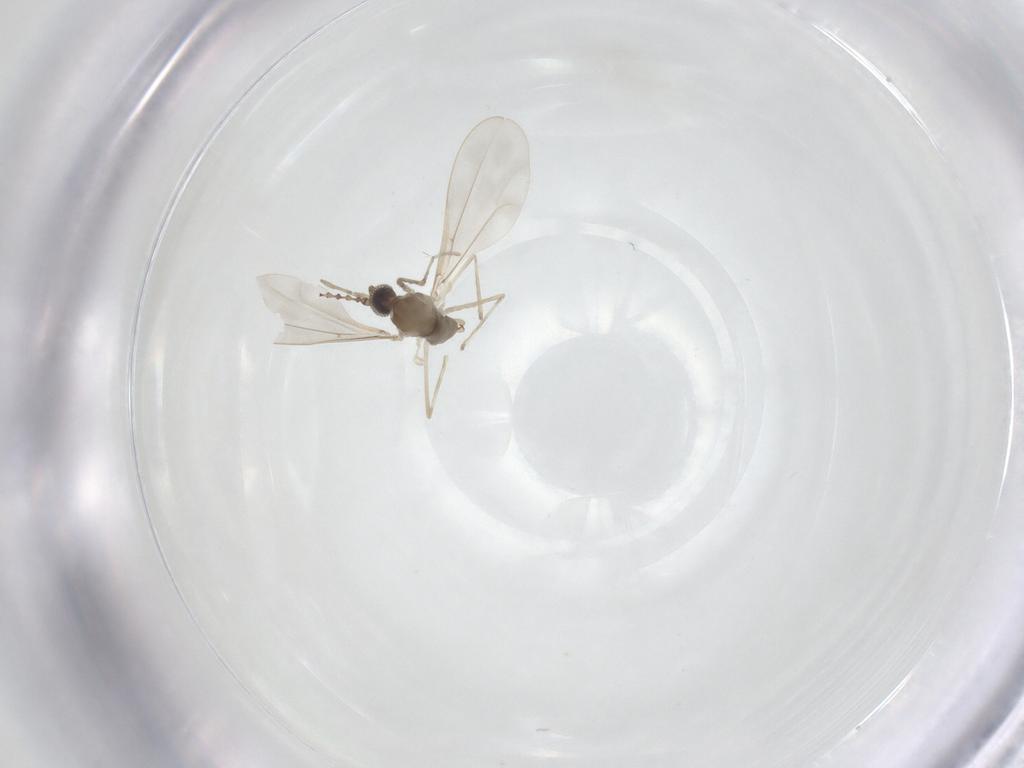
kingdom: Animalia
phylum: Arthropoda
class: Insecta
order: Diptera
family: Cecidomyiidae
